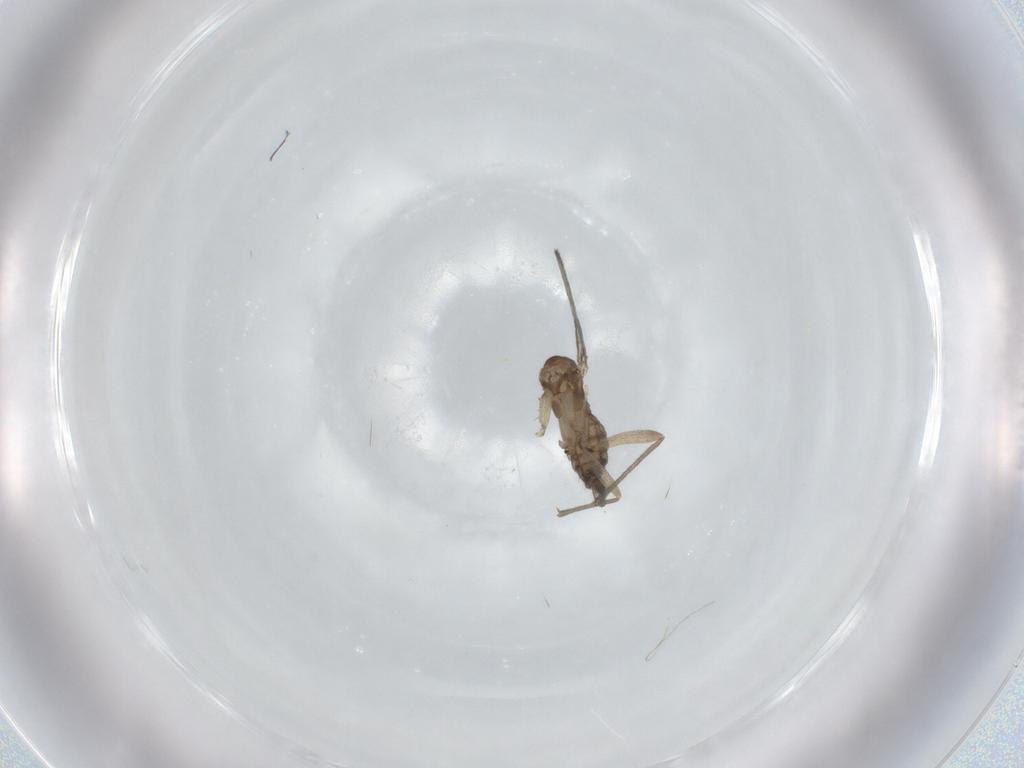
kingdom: Animalia
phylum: Arthropoda
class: Insecta
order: Diptera
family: Sciaridae
